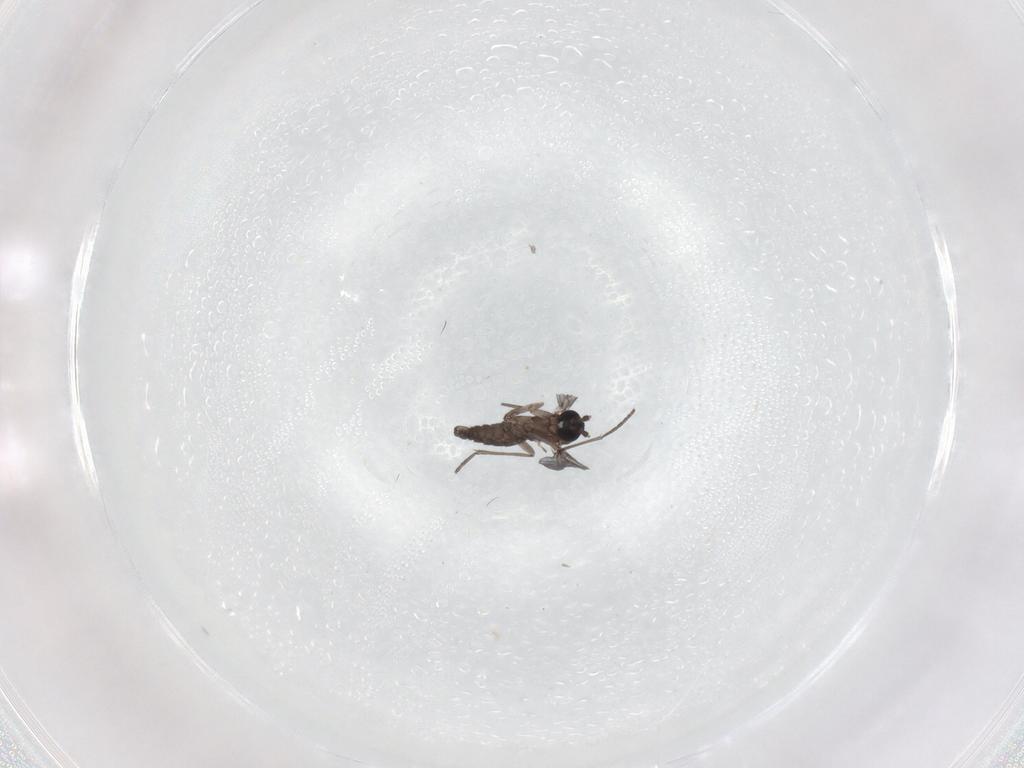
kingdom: Animalia
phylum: Arthropoda
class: Insecta
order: Diptera
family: Sciaridae
